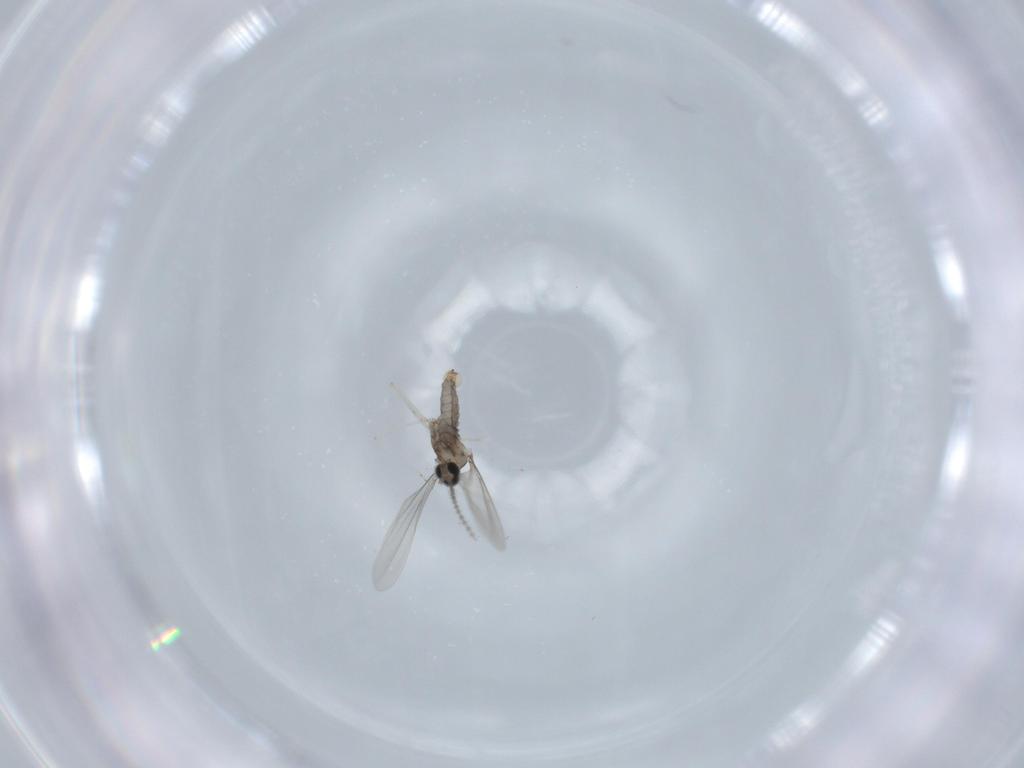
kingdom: Animalia
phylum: Arthropoda
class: Insecta
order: Diptera
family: Cecidomyiidae
